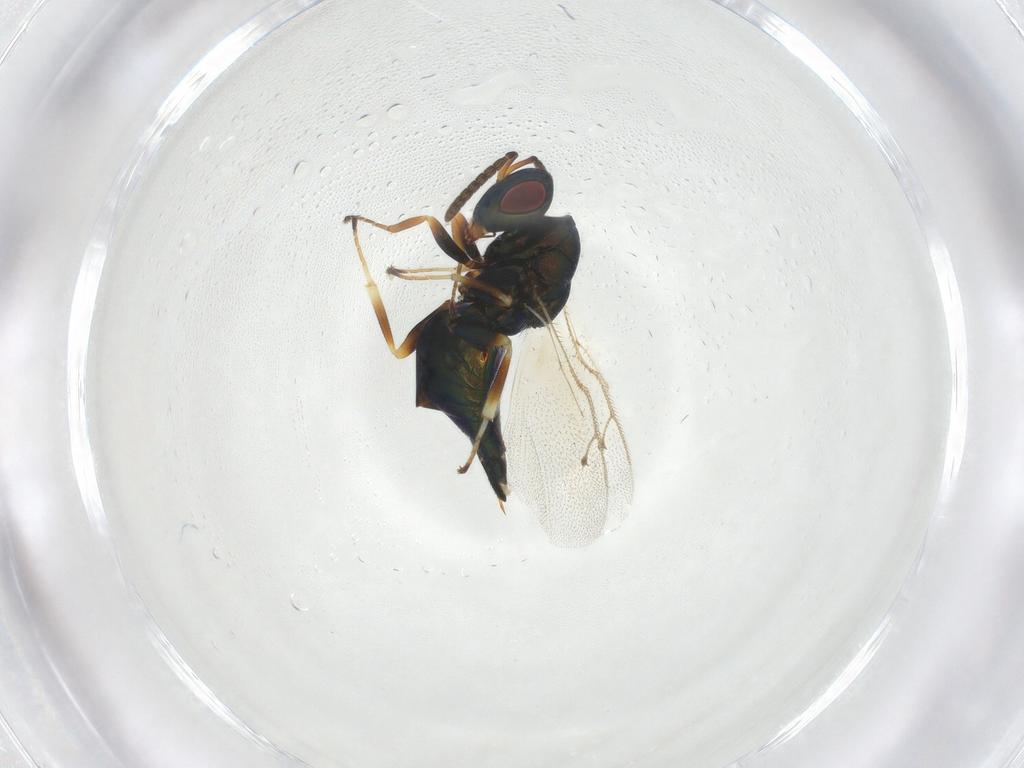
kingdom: Animalia
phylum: Arthropoda
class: Insecta
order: Hymenoptera
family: Pteromalidae
